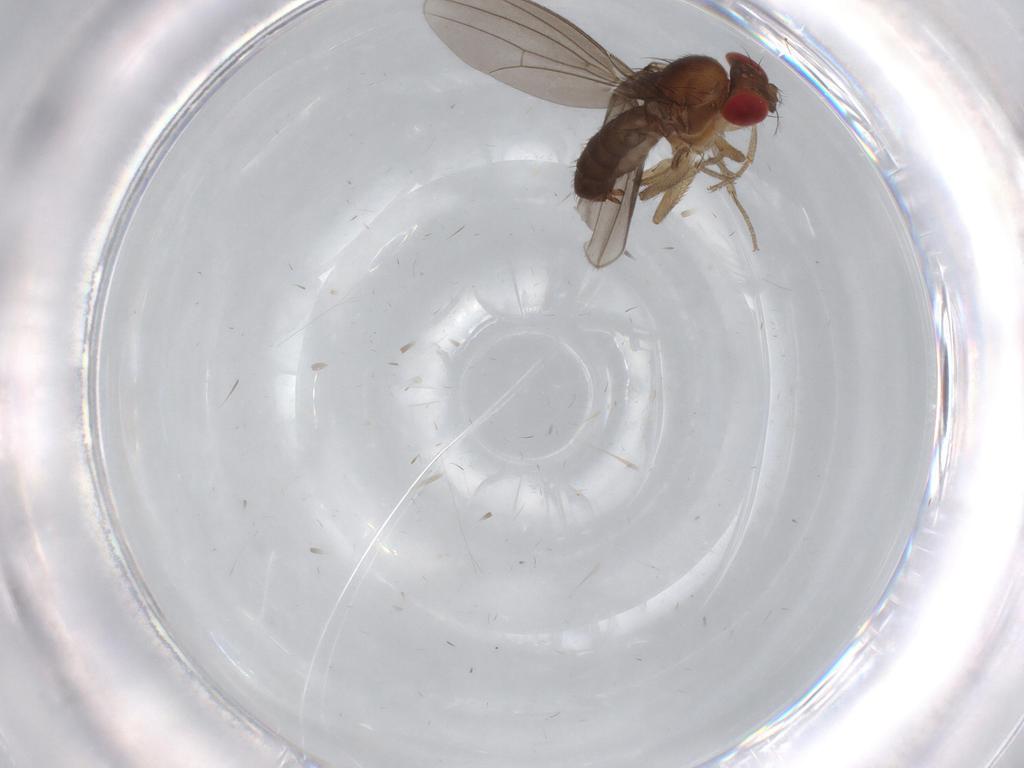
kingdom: Animalia
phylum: Arthropoda
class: Insecta
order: Diptera
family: Drosophilidae
